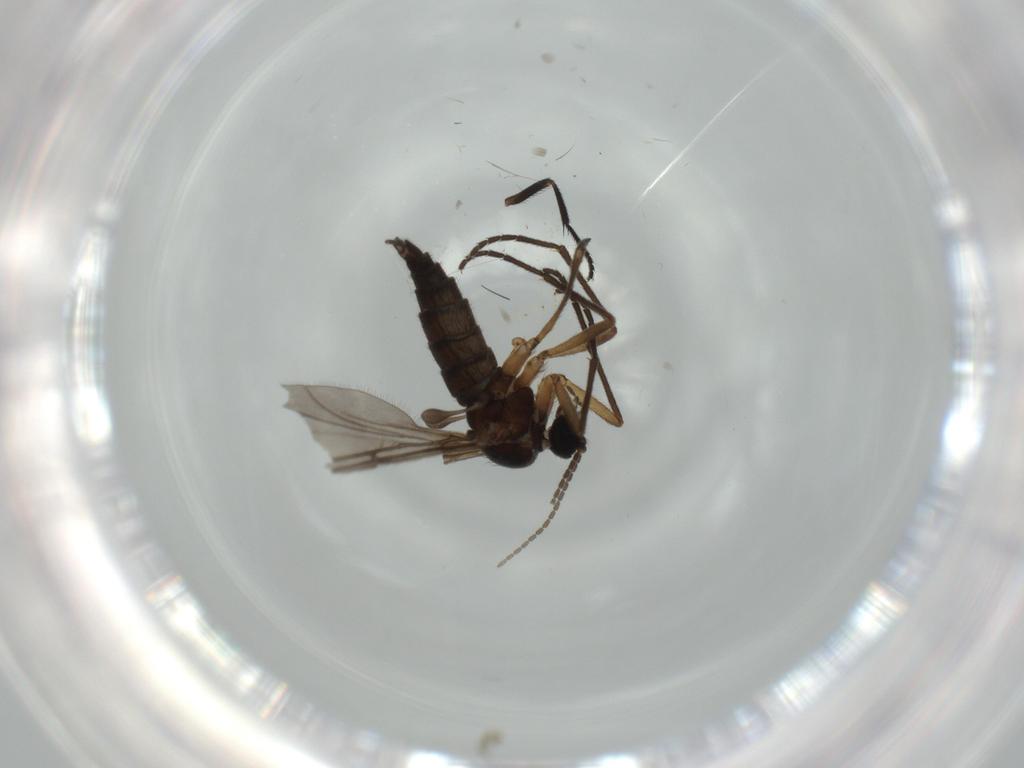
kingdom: Animalia
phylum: Arthropoda
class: Insecta
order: Diptera
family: Sciaridae
